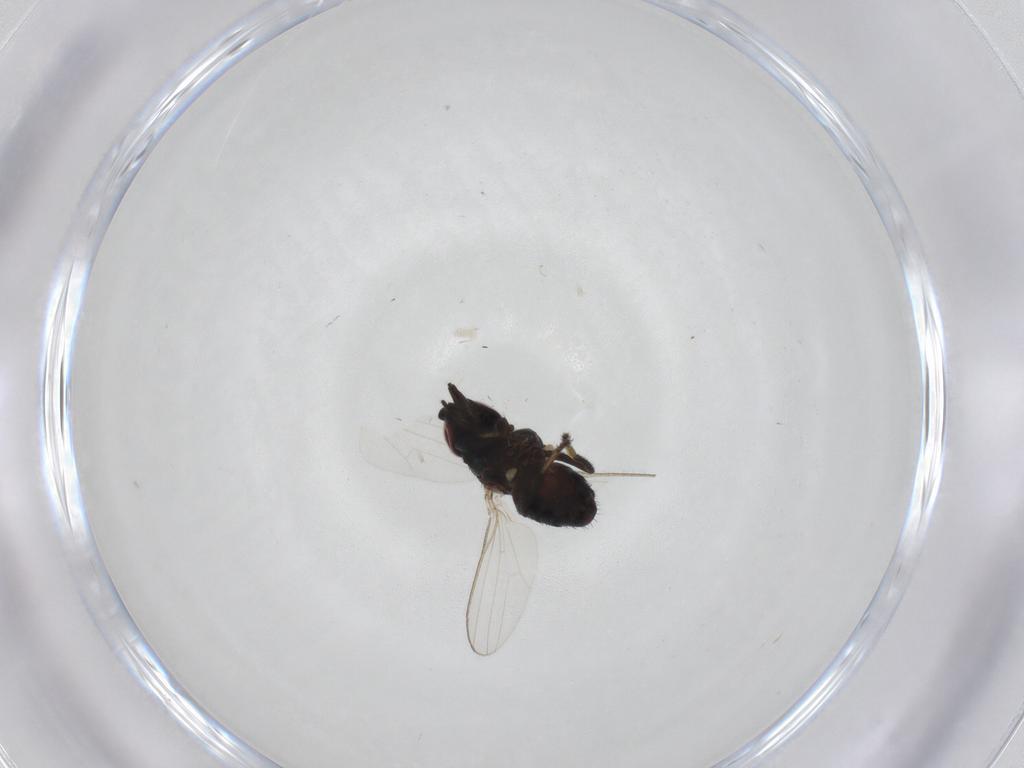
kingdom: Animalia
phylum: Arthropoda
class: Insecta
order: Diptera
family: Milichiidae
